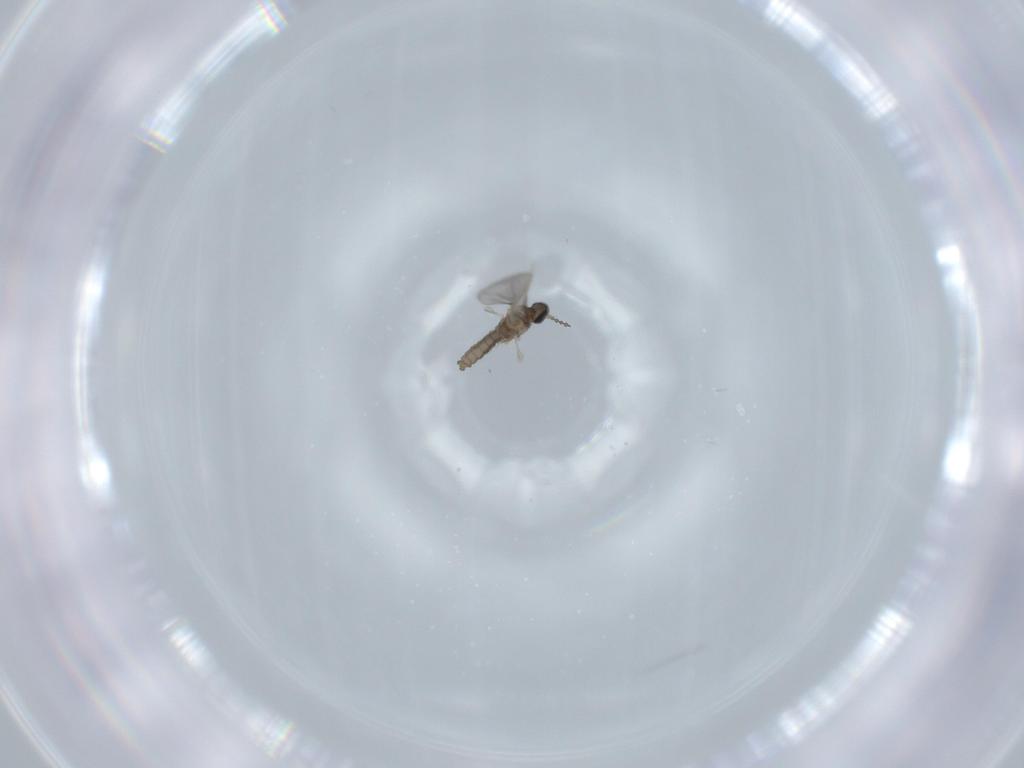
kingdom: Animalia
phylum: Arthropoda
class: Insecta
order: Diptera
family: Cecidomyiidae
